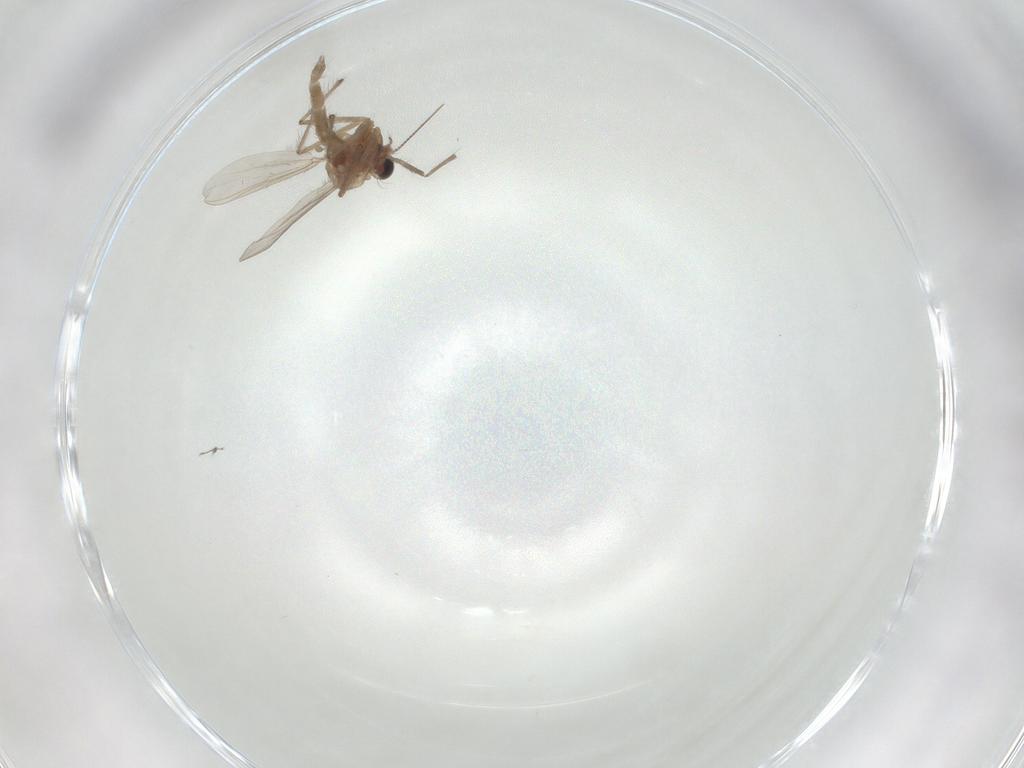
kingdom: Animalia
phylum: Arthropoda
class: Insecta
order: Diptera
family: Chironomidae
